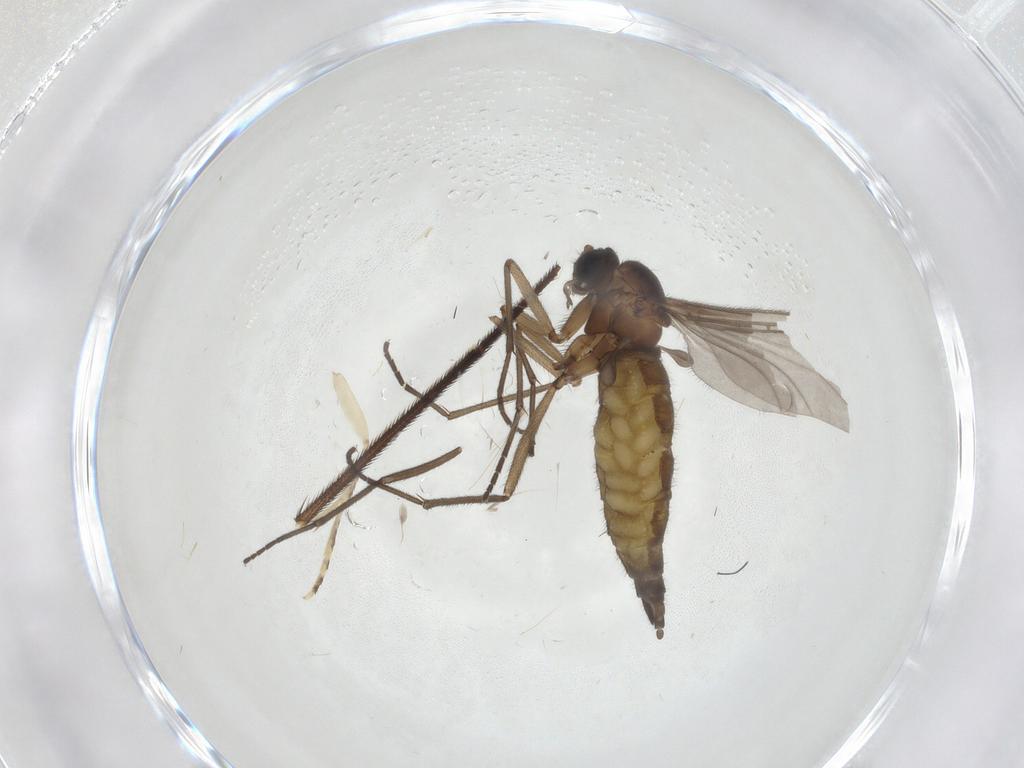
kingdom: Animalia
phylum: Arthropoda
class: Insecta
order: Diptera
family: Sciaridae
